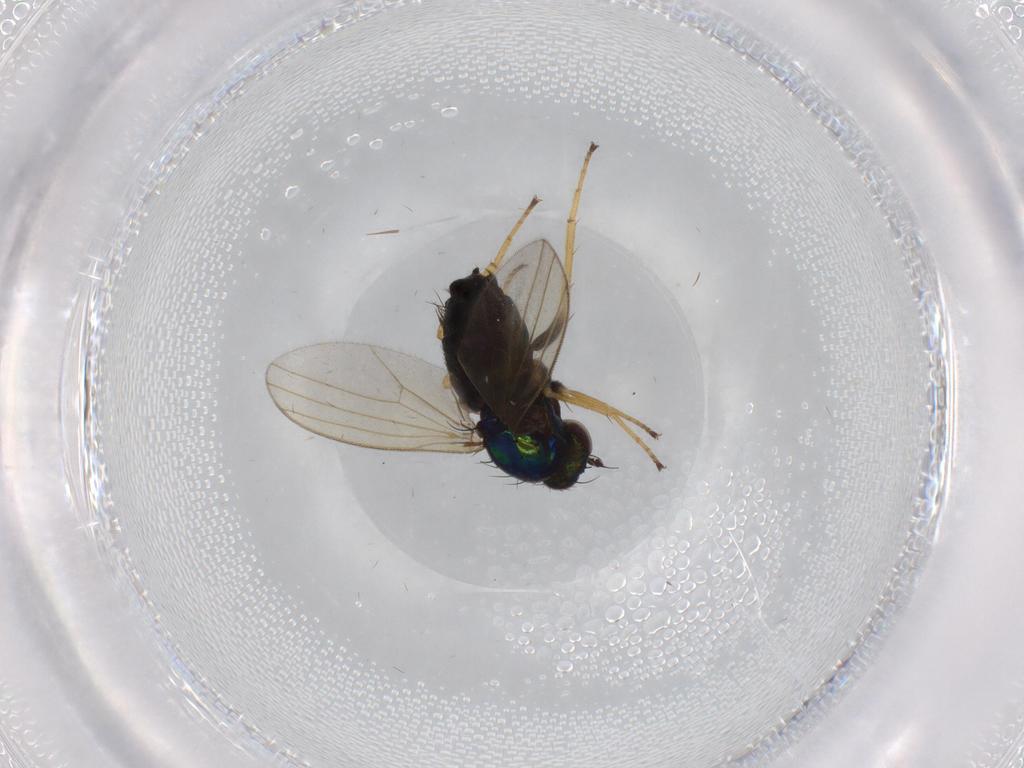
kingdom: Animalia
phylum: Arthropoda
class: Insecta
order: Diptera
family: Dolichopodidae
